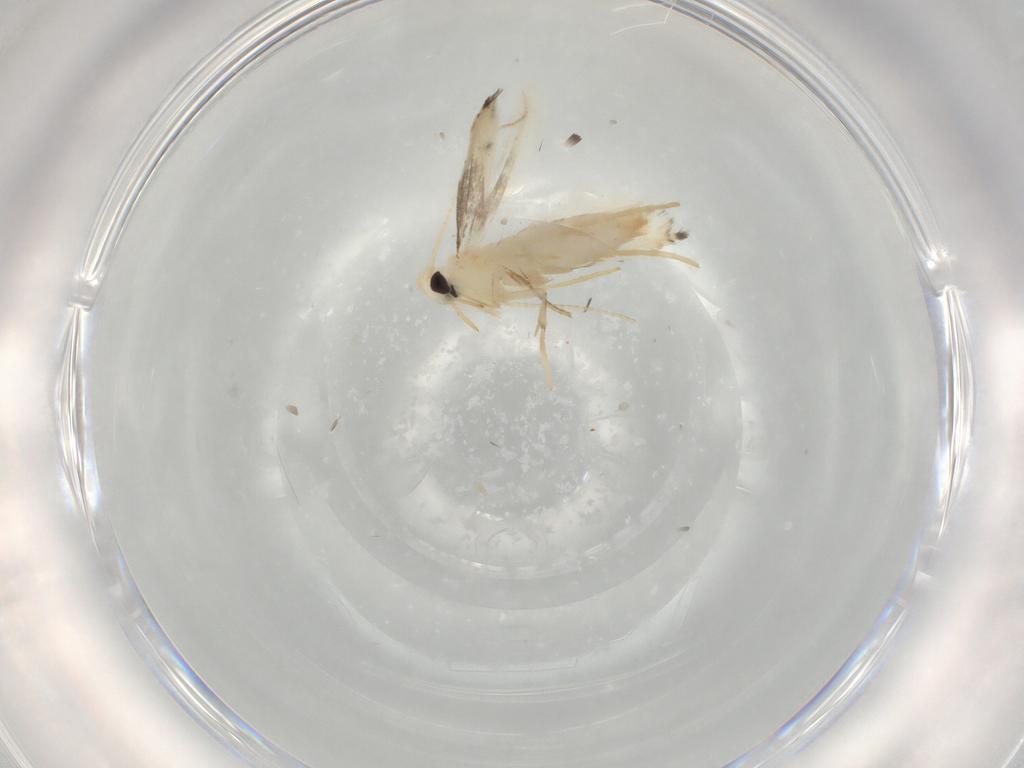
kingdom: Animalia
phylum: Arthropoda
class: Insecta
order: Lepidoptera
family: Gracillariidae
